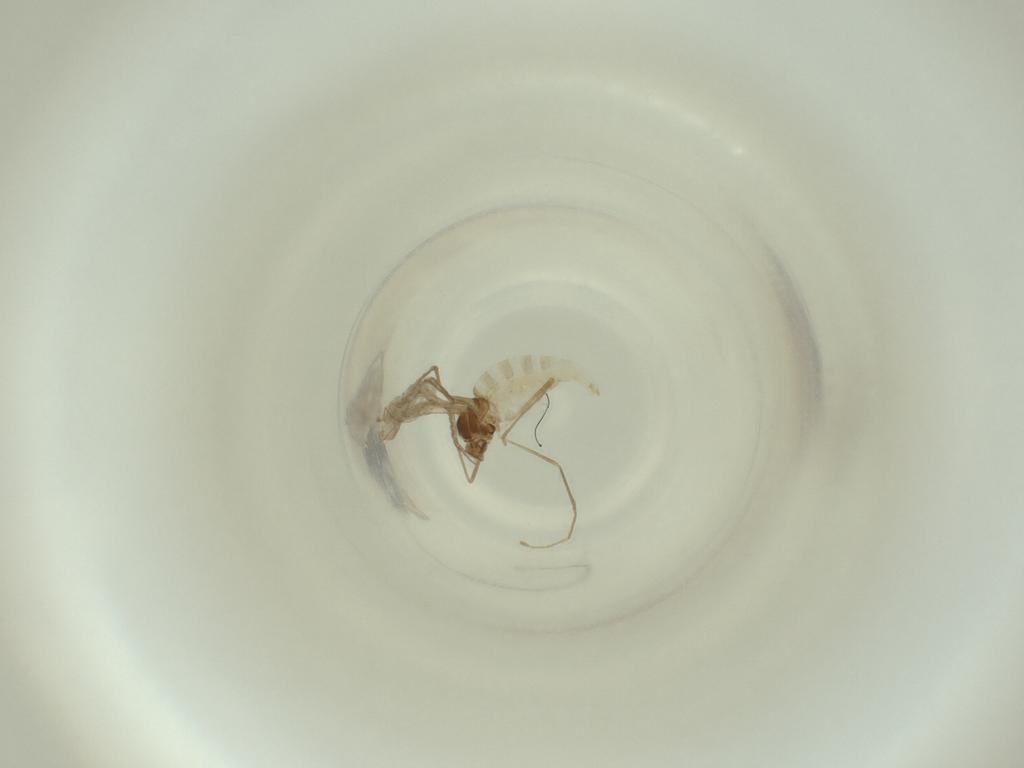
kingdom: Animalia
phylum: Arthropoda
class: Insecta
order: Diptera
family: Cecidomyiidae
